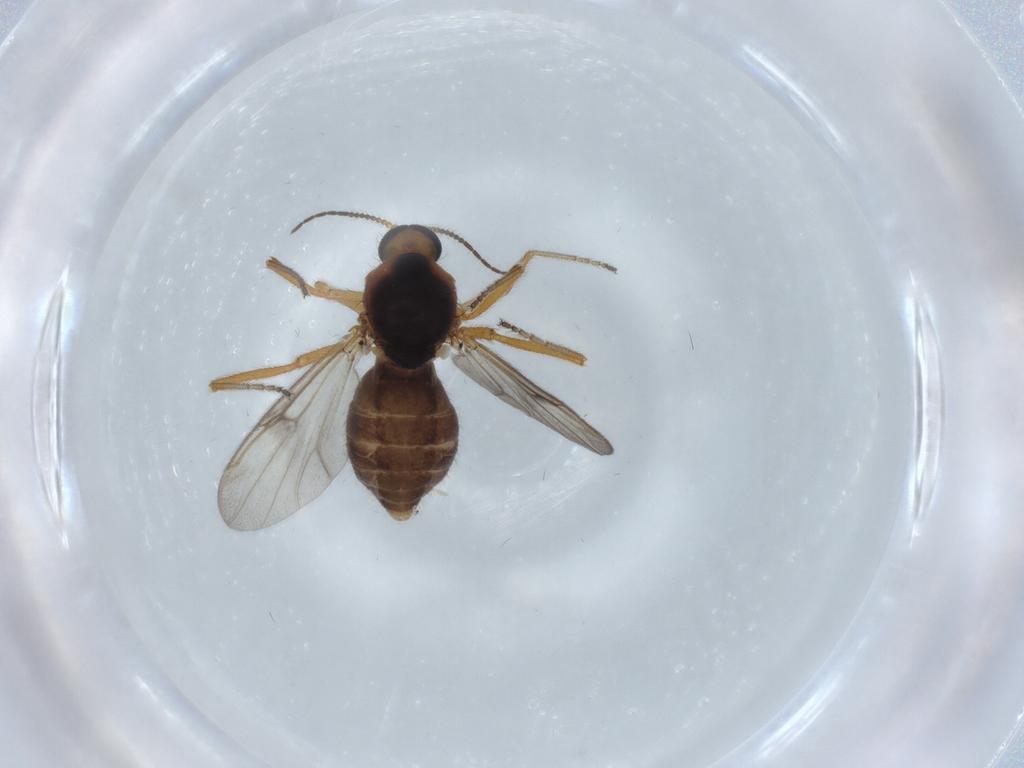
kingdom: Animalia
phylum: Arthropoda
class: Insecta
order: Diptera
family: Ceratopogonidae
